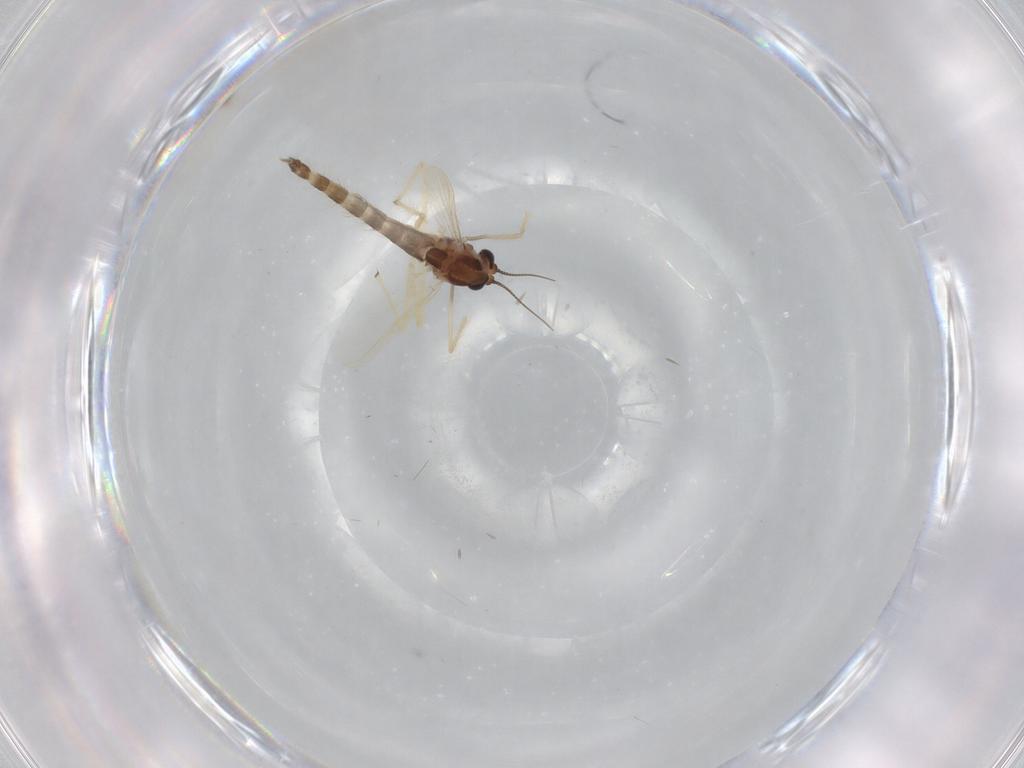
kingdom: Animalia
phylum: Arthropoda
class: Insecta
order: Diptera
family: Chironomidae
